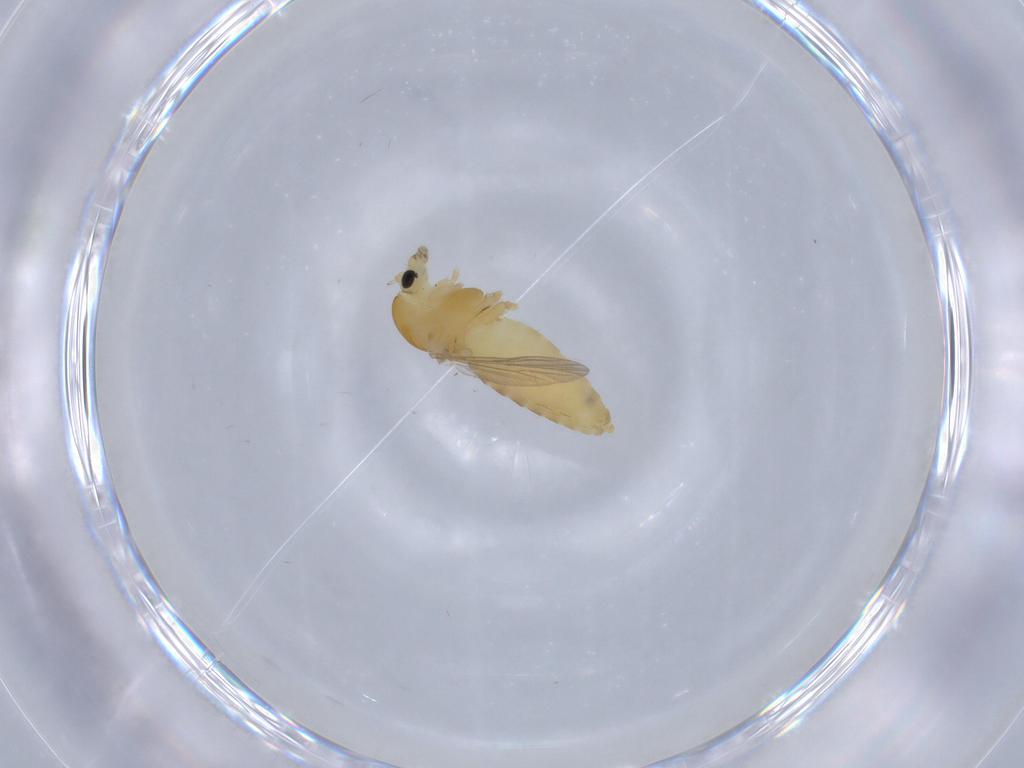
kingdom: Animalia
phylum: Arthropoda
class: Insecta
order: Diptera
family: Chironomidae
